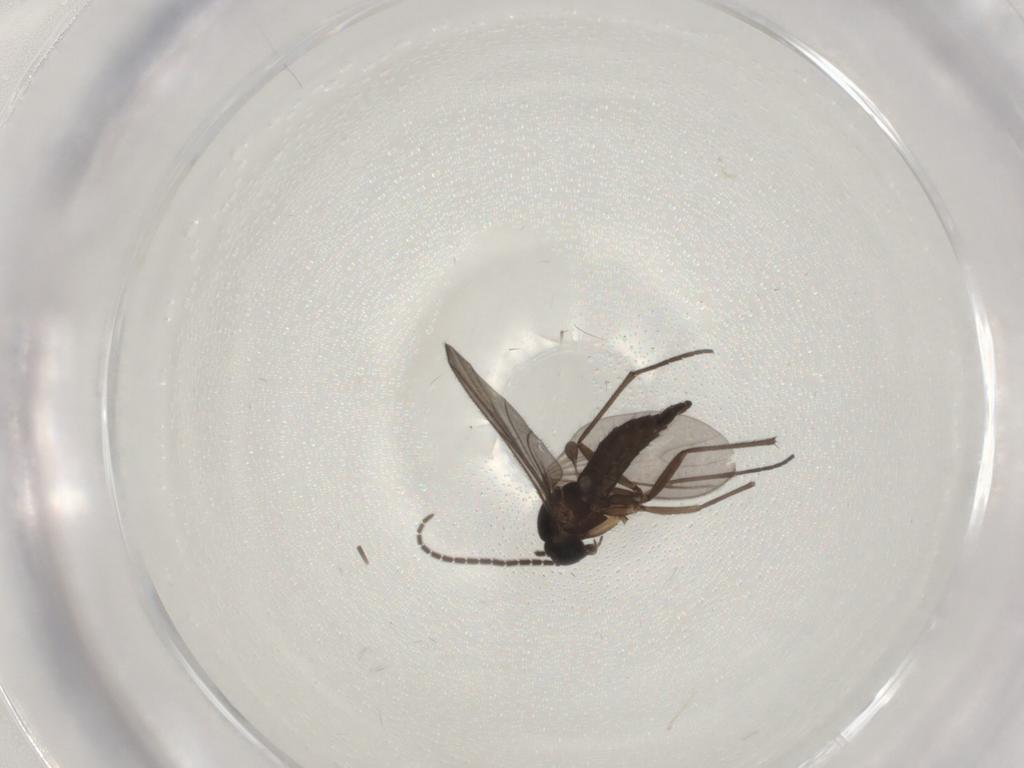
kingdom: Animalia
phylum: Arthropoda
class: Insecta
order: Diptera
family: Sciaridae
